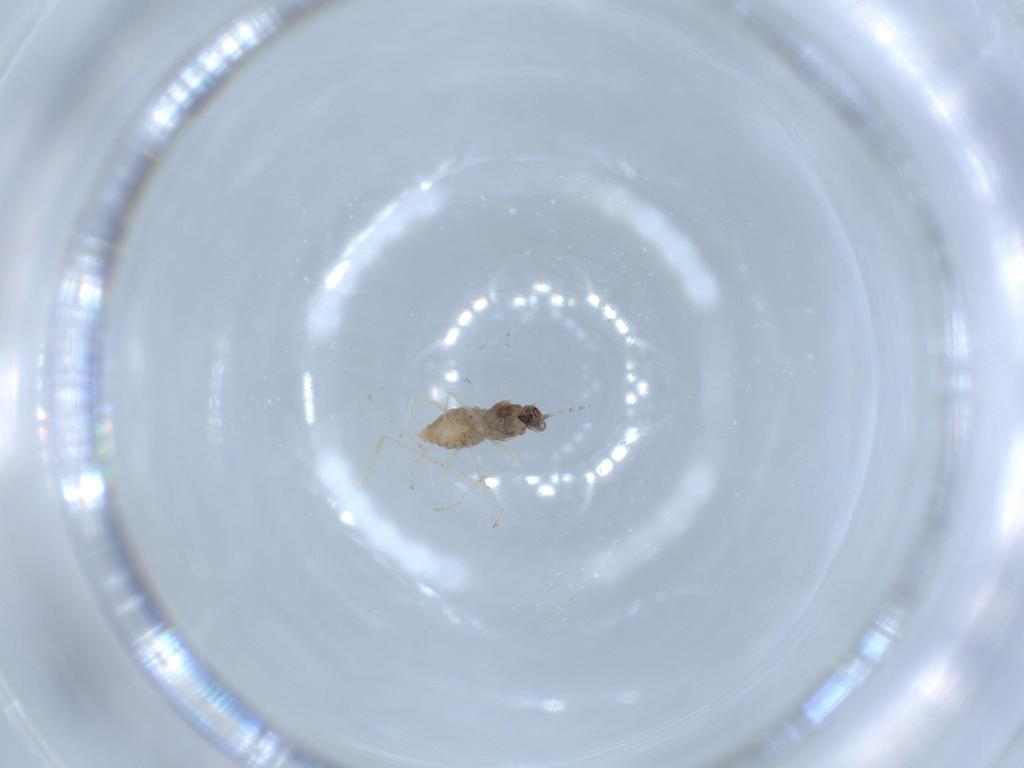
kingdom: Animalia
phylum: Arthropoda
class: Insecta
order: Diptera
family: Cecidomyiidae
